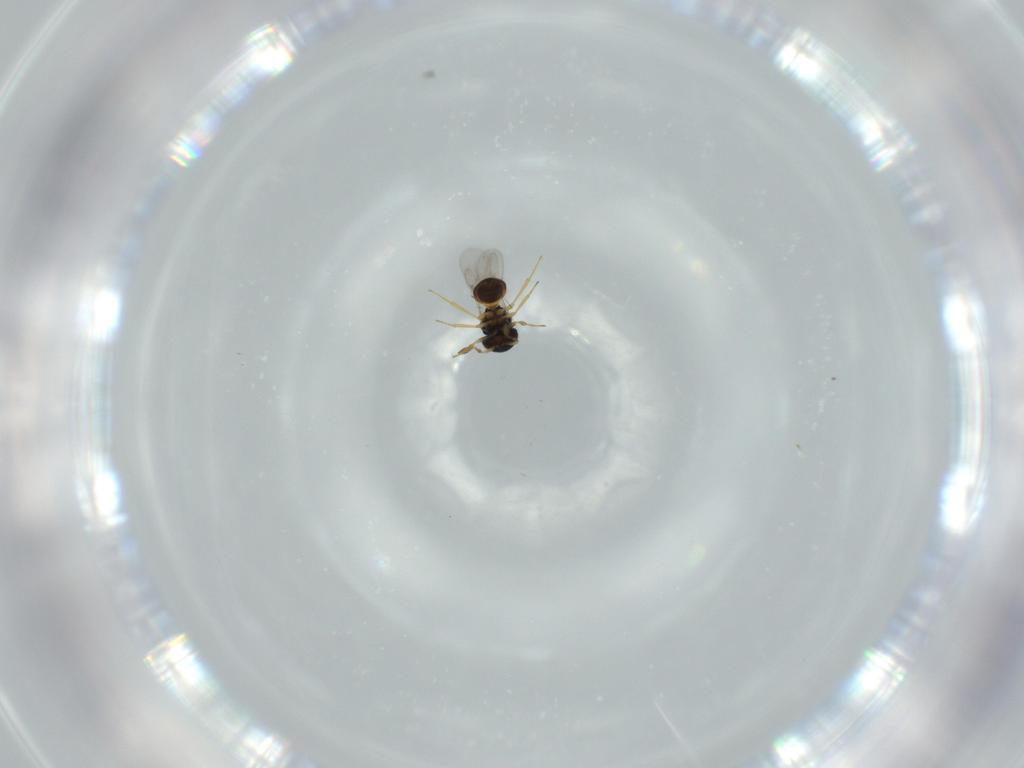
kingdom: Animalia
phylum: Arthropoda
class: Insecta
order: Hymenoptera
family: Scelionidae
